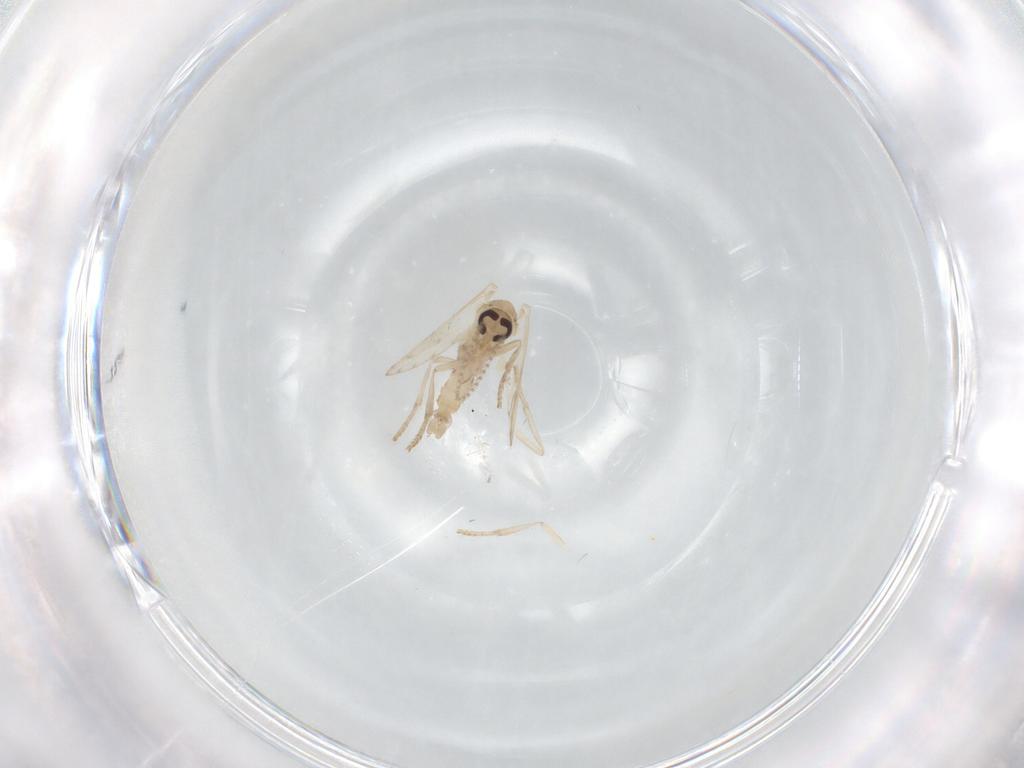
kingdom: Animalia
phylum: Arthropoda
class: Insecta
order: Diptera
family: Psychodidae
